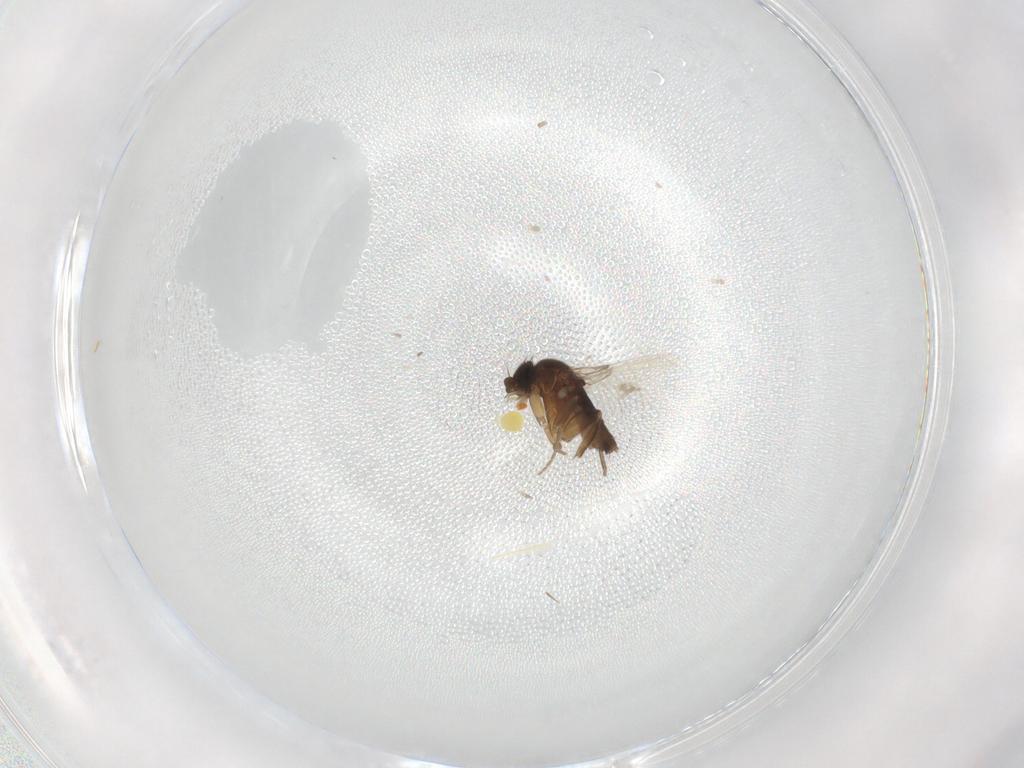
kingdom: Animalia
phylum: Arthropoda
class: Insecta
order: Diptera
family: Phoridae
